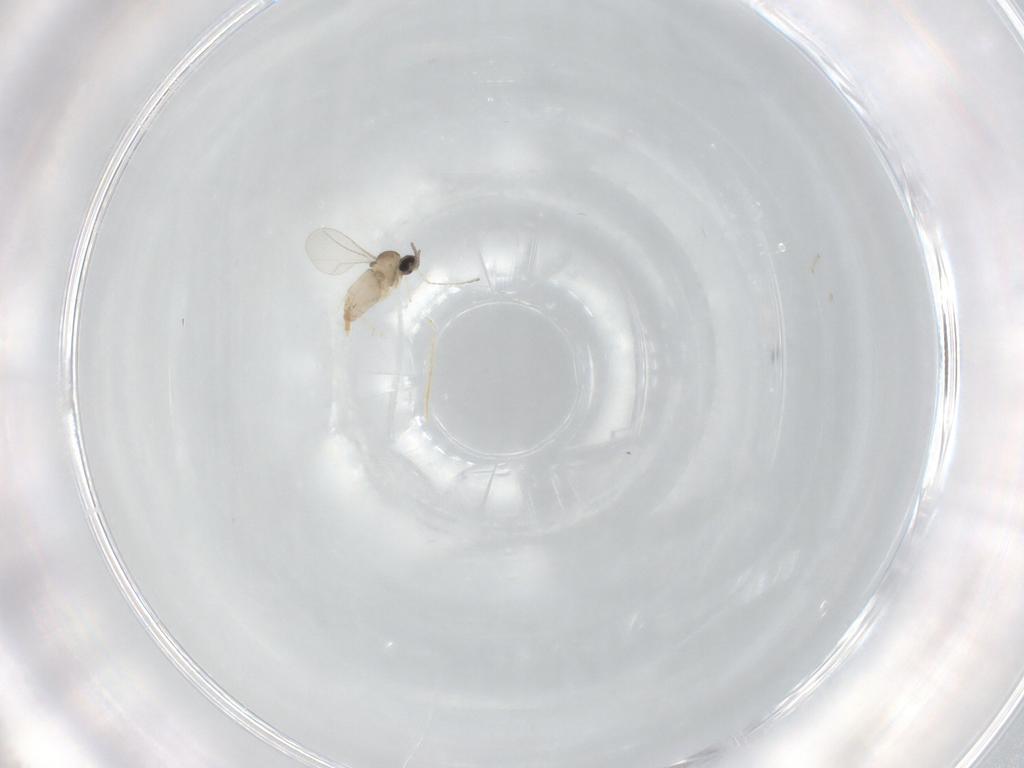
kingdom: Animalia
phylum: Arthropoda
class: Insecta
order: Diptera
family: Cecidomyiidae
